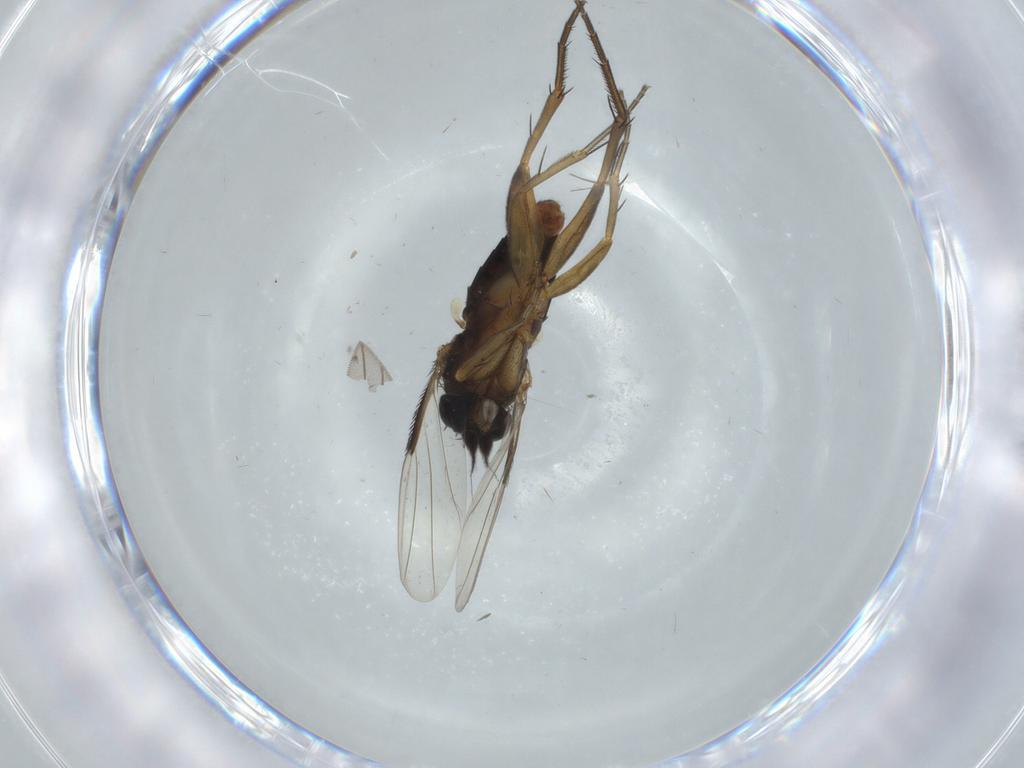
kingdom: Animalia
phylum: Arthropoda
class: Insecta
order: Diptera
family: Phoridae
